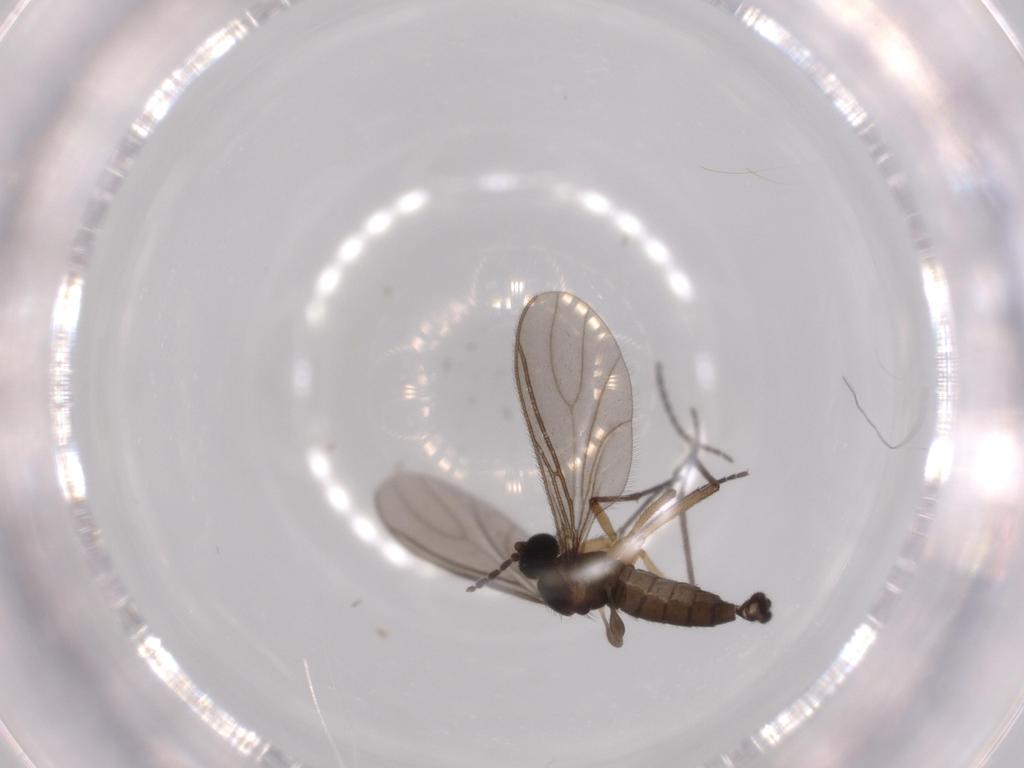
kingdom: Animalia
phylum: Arthropoda
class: Insecta
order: Diptera
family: Sciaridae
